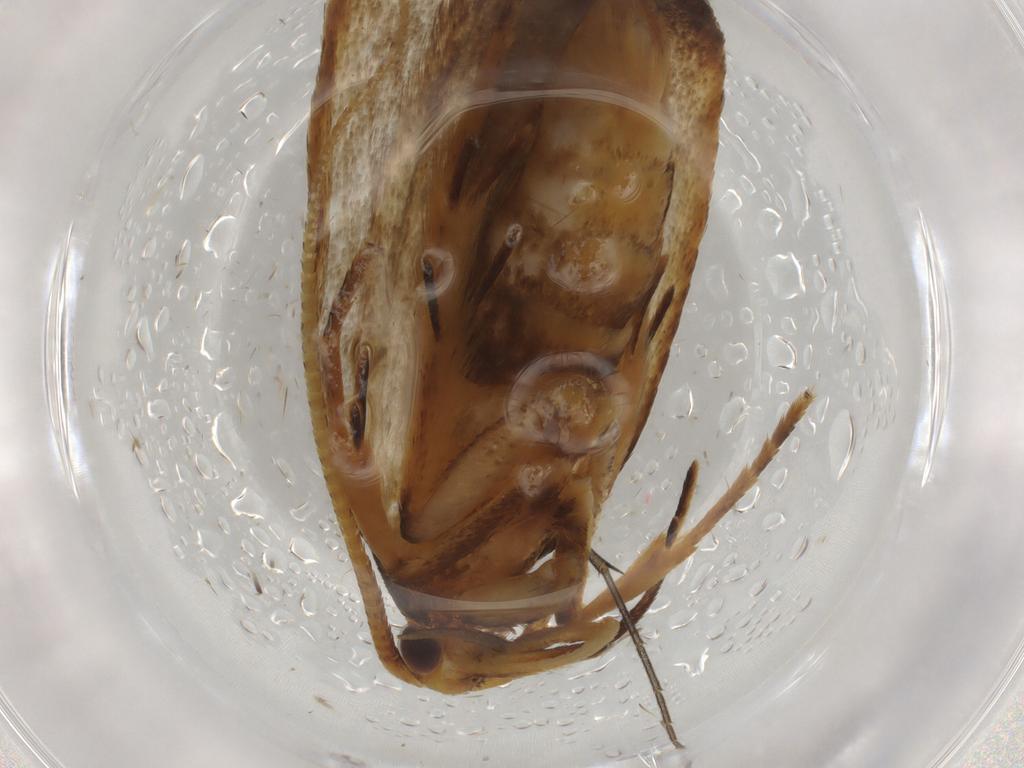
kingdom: Animalia
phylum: Arthropoda
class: Insecta
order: Lepidoptera
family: Lecithoceridae
